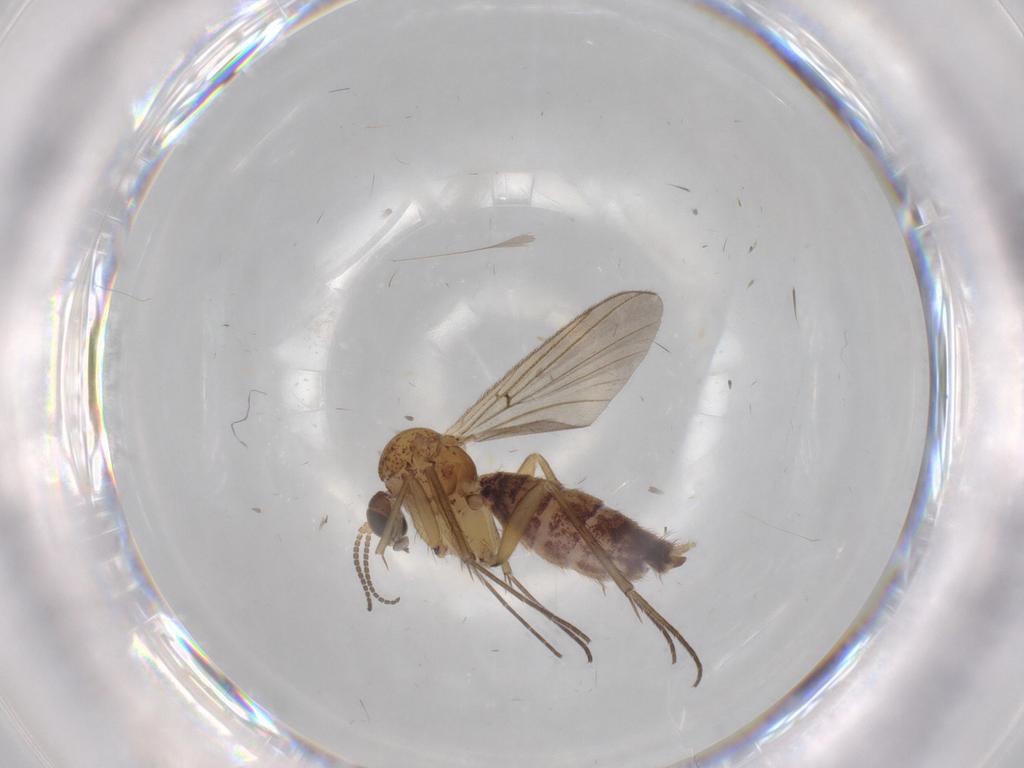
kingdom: Animalia
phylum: Arthropoda
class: Insecta
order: Diptera
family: Mycetophilidae
